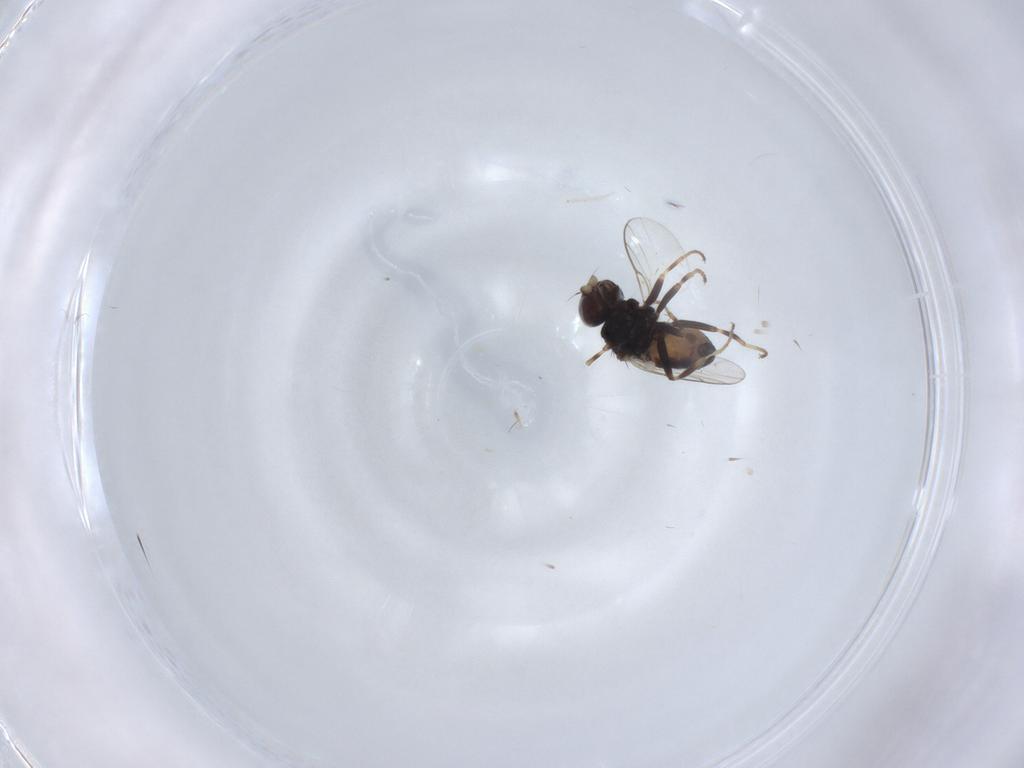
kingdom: Animalia
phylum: Arthropoda
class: Insecta
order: Diptera
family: Chloropidae
